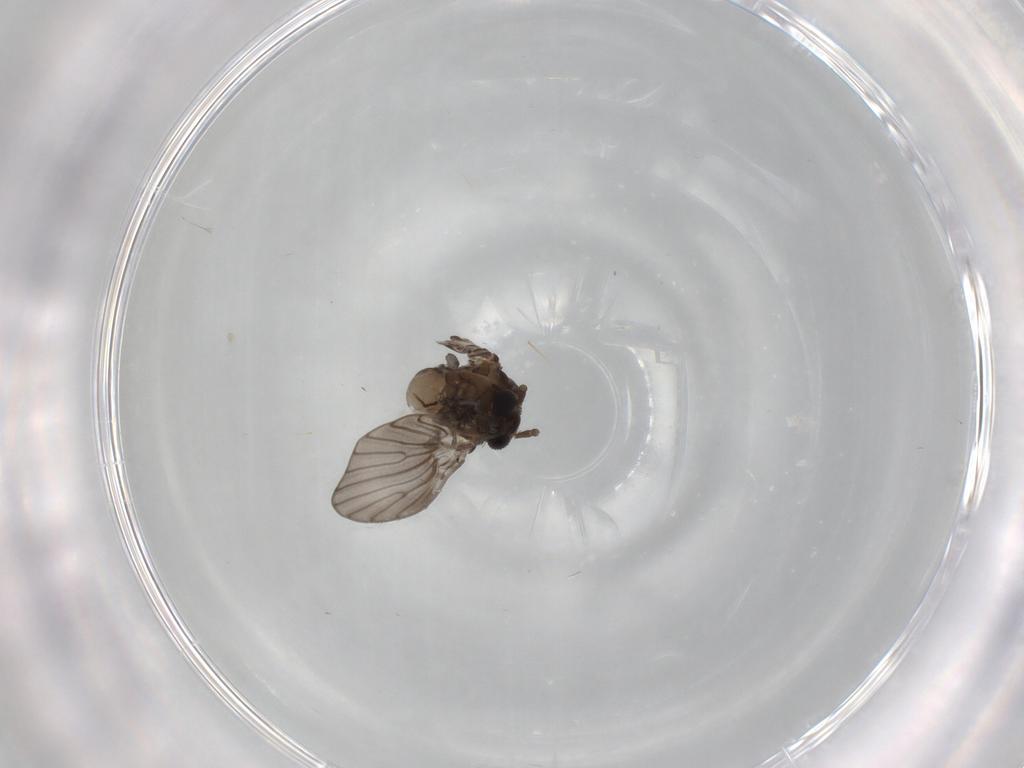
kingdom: Animalia
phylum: Arthropoda
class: Insecta
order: Diptera
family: Psychodidae
